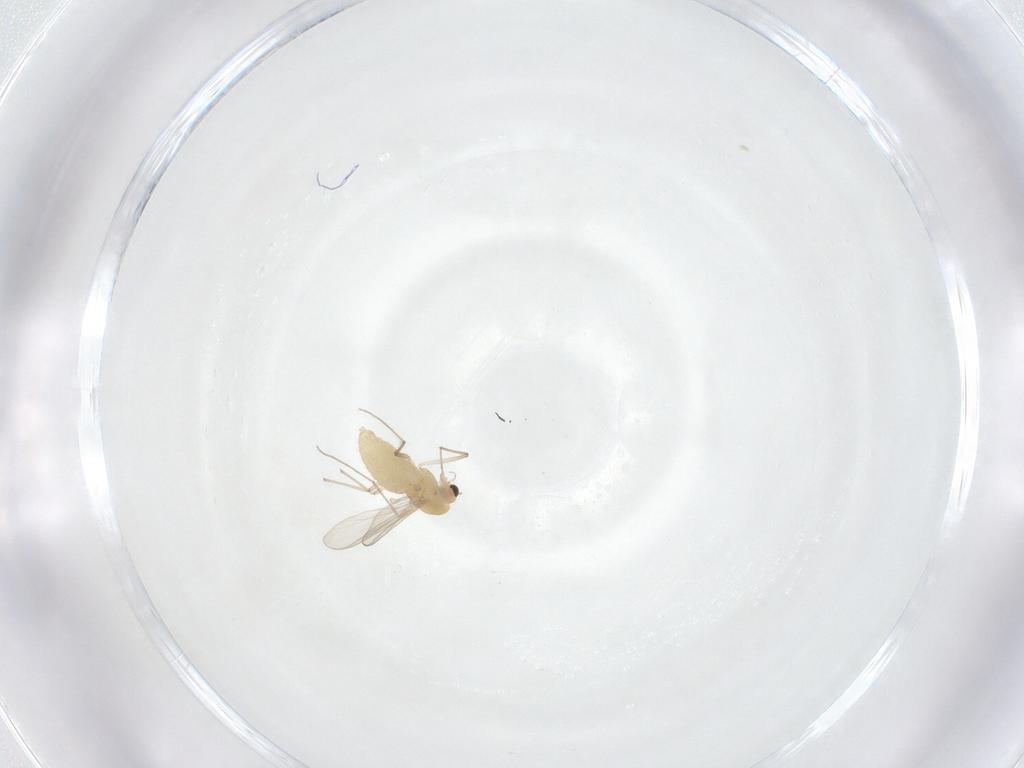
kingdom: Animalia
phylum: Arthropoda
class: Insecta
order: Diptera
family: Chironomidae
